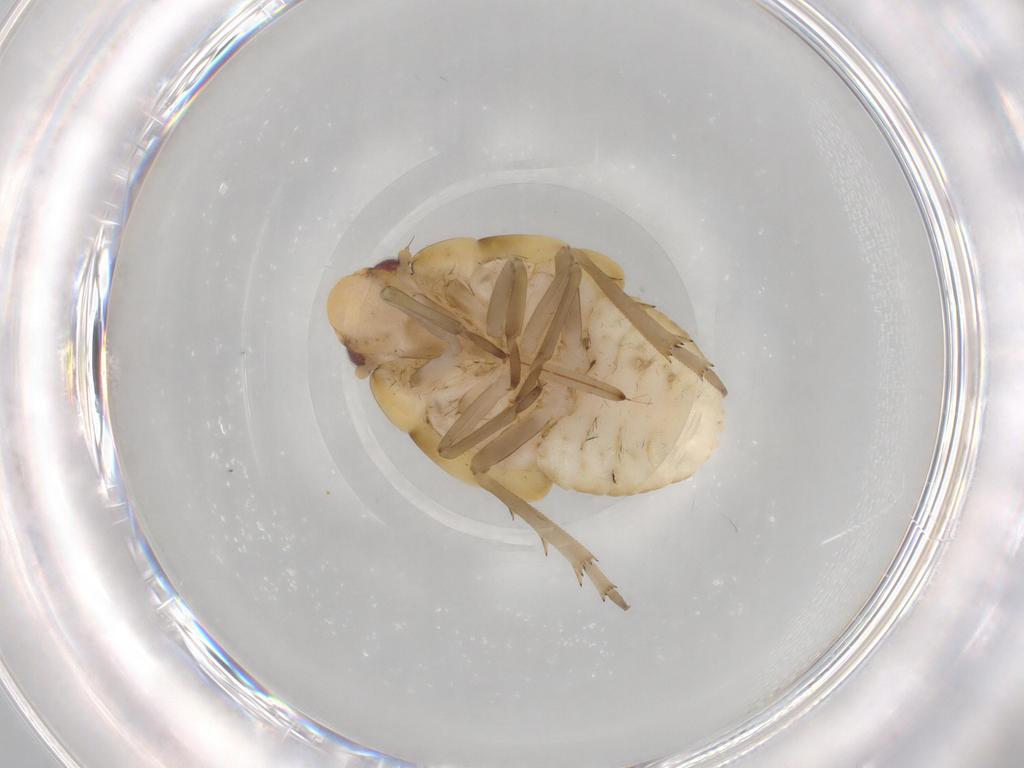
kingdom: Animalia
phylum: Arthropoda
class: Insecta
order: Hemiptera
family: Flatidae
